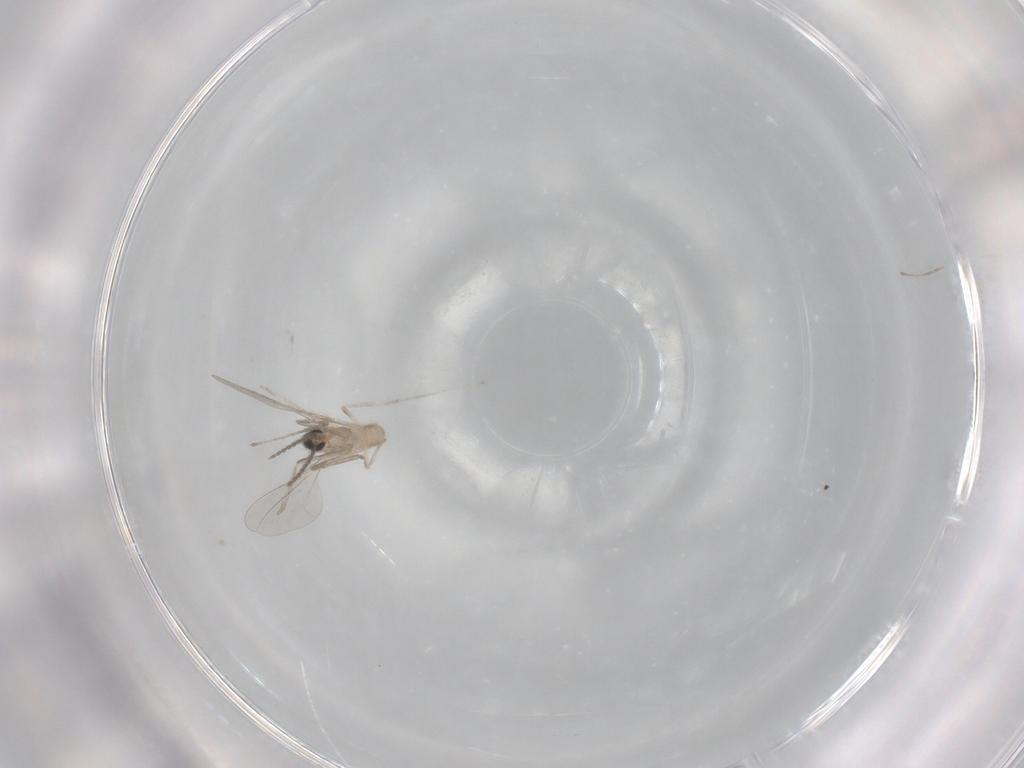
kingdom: Animalia
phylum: Arthropoda
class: Insecta
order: Diptera
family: Cecidomyiidae
